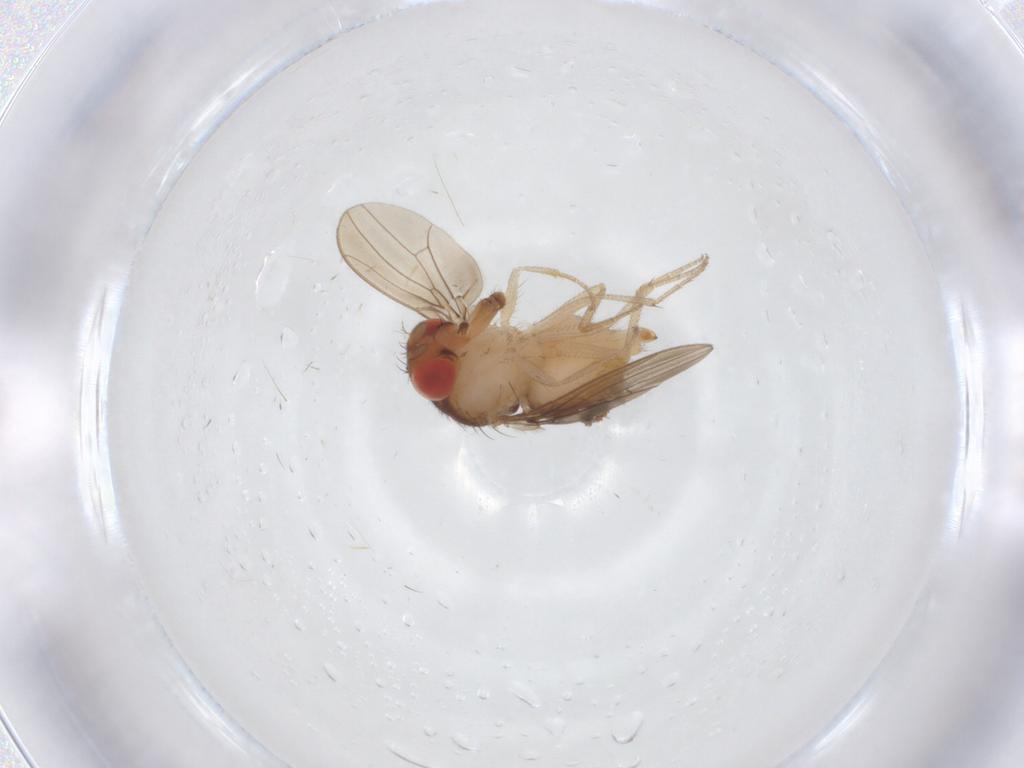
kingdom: Animalia
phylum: Arthropoda
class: Insecta
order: Diptera
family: Drosophilidae
